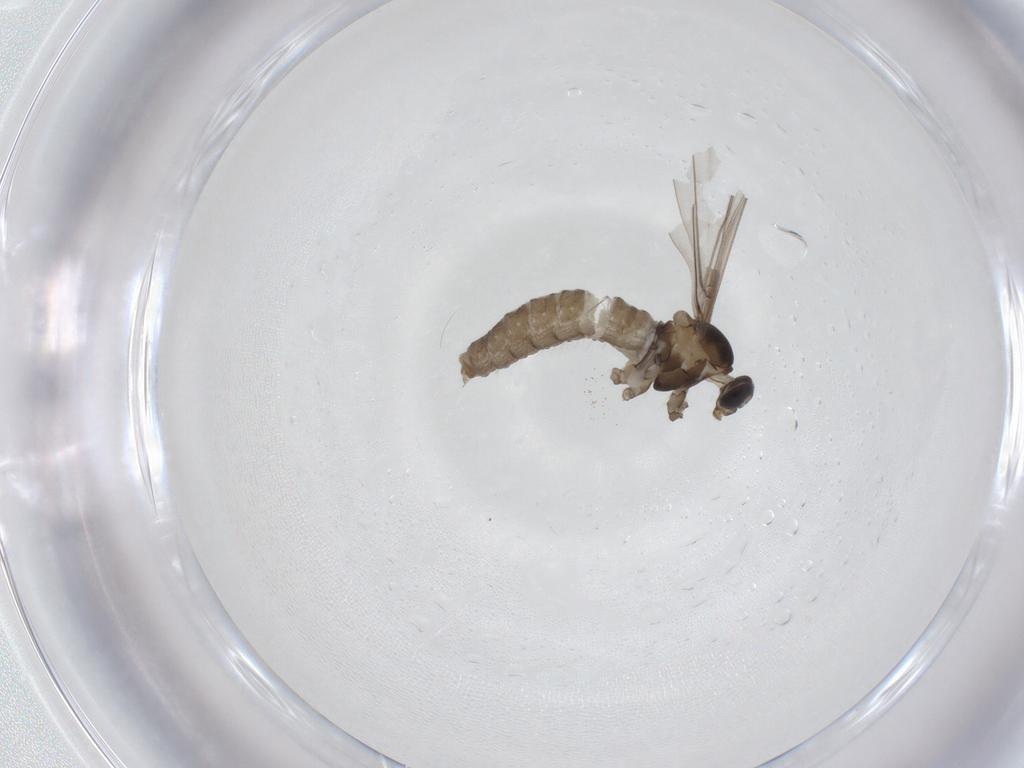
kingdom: Animalia
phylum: Arthropoda
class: Insecta
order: Diptera
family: Cecidomyiidae
